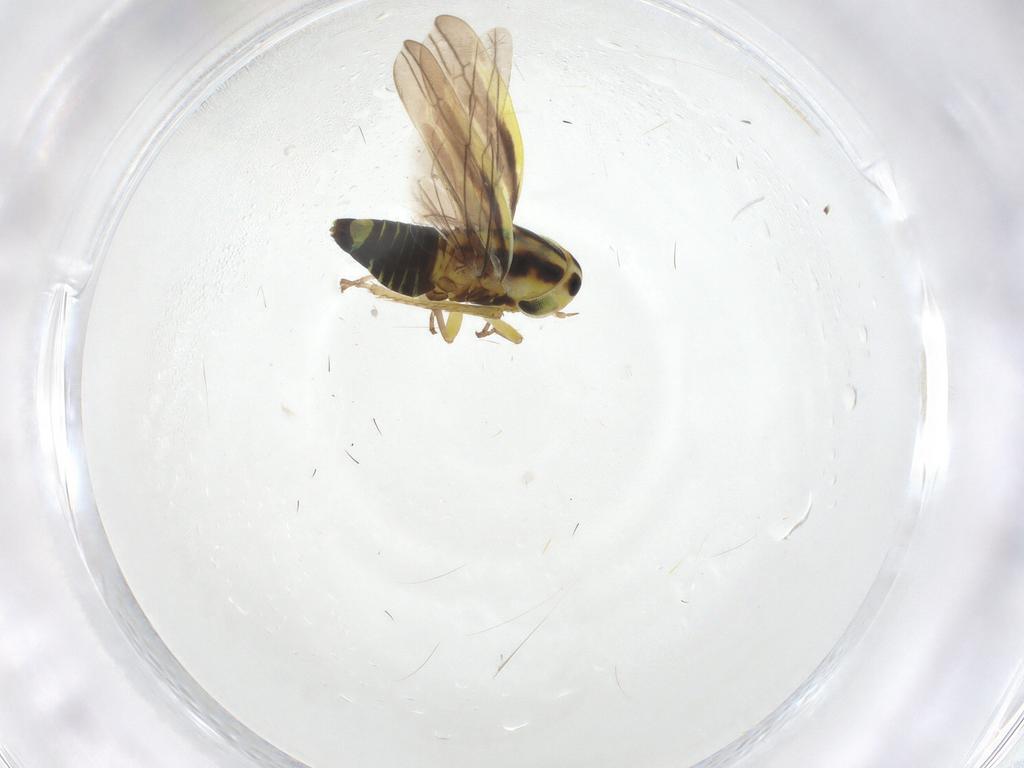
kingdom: Animalia
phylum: Arthropoda
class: Insecta
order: Hemiptera
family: Cicadellidae
